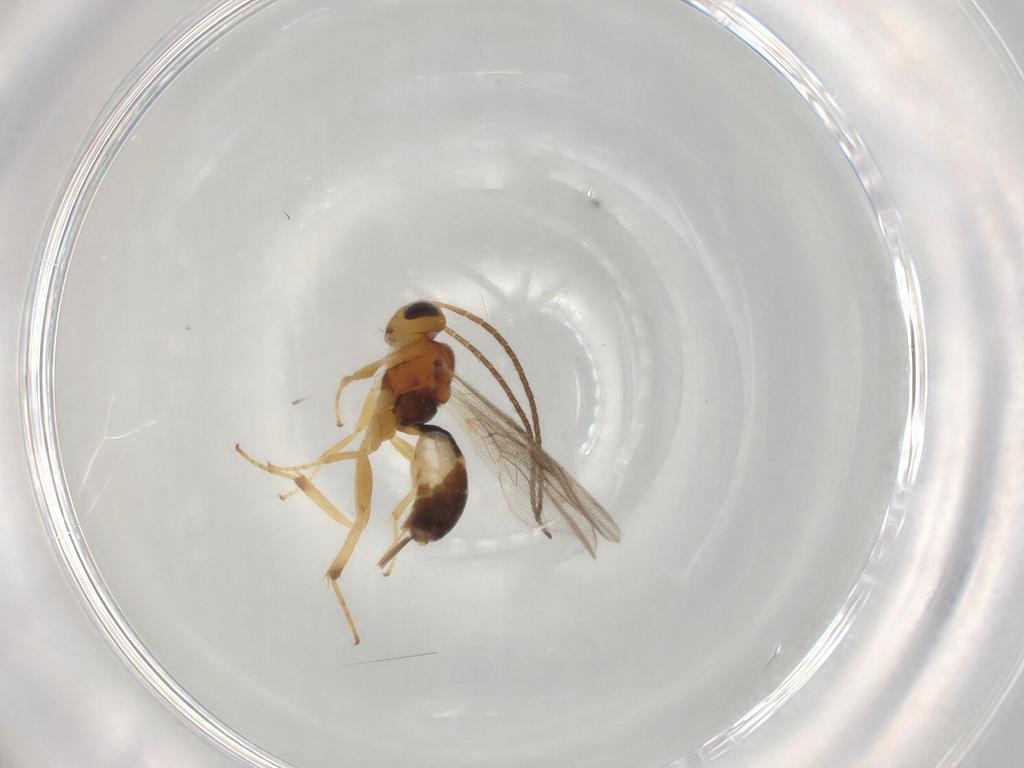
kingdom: Animalia
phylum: Arthropoda
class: Insecta
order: Hymenoptera
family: Ichneumonidae
